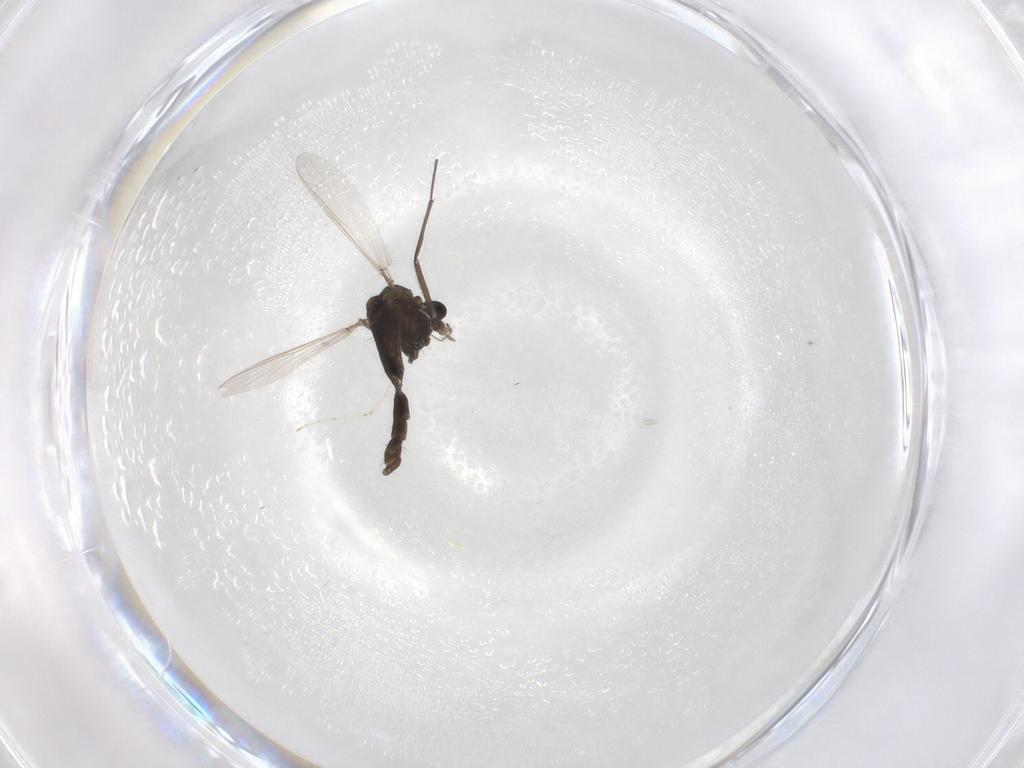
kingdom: Animalia
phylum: Arthropoda
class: Insecta
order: Diptera
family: Chironomidae
